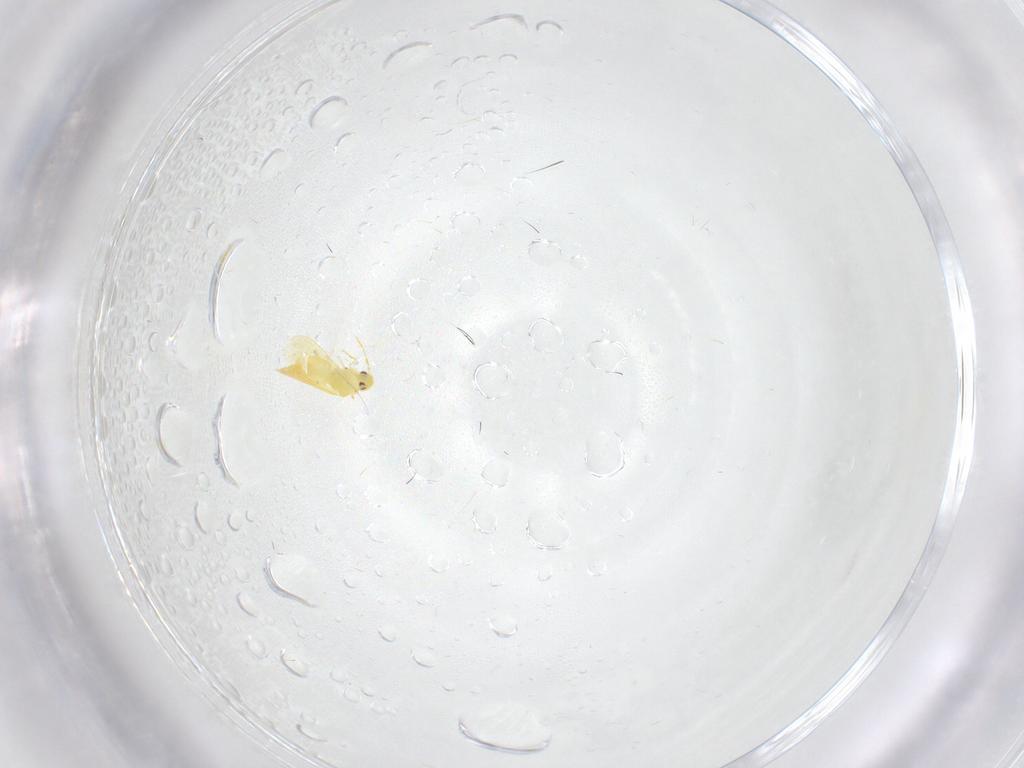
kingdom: Animalia
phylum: Arthropoda
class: Insecta
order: Hemiptera
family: Aleyrodidae
